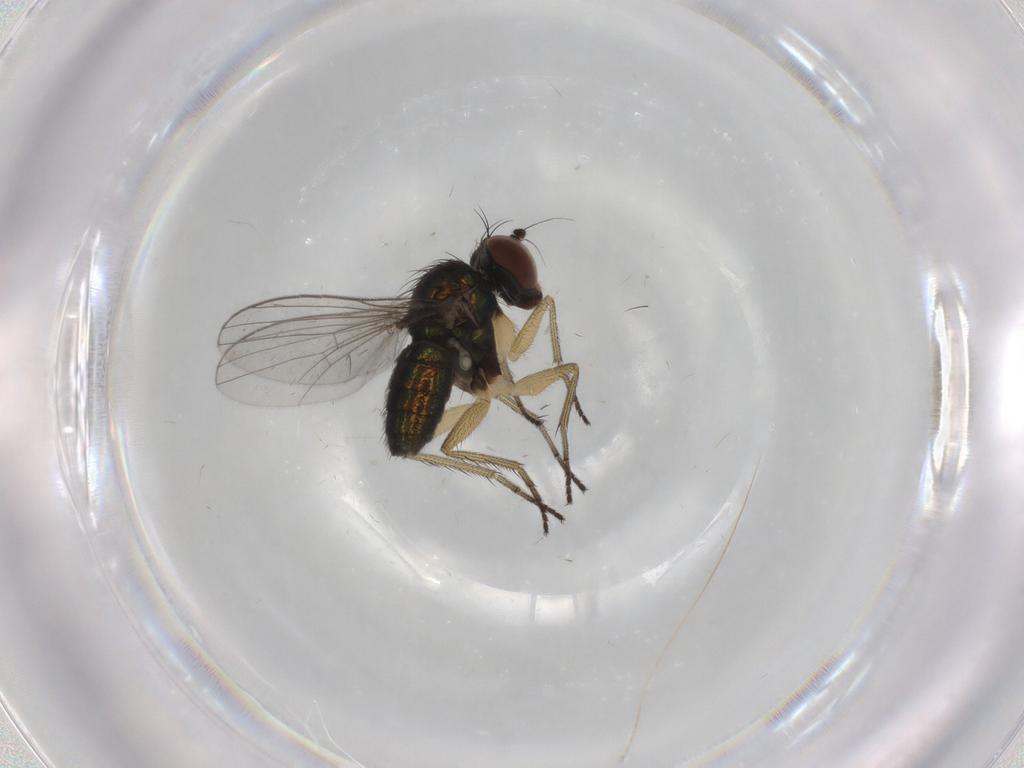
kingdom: Animalia
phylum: Arthropoda
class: Insecta
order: Diptera
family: Dolichopodidae
